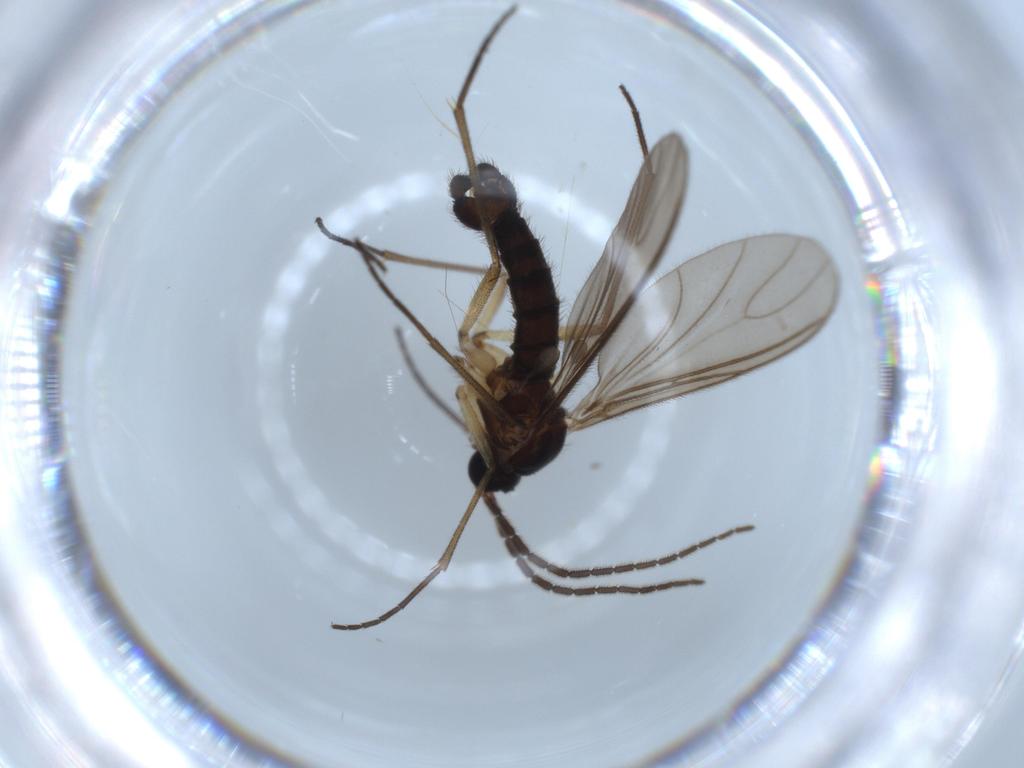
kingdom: Animalia
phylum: Arthropoda
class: Insecta
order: Diptera
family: Sciaridae
